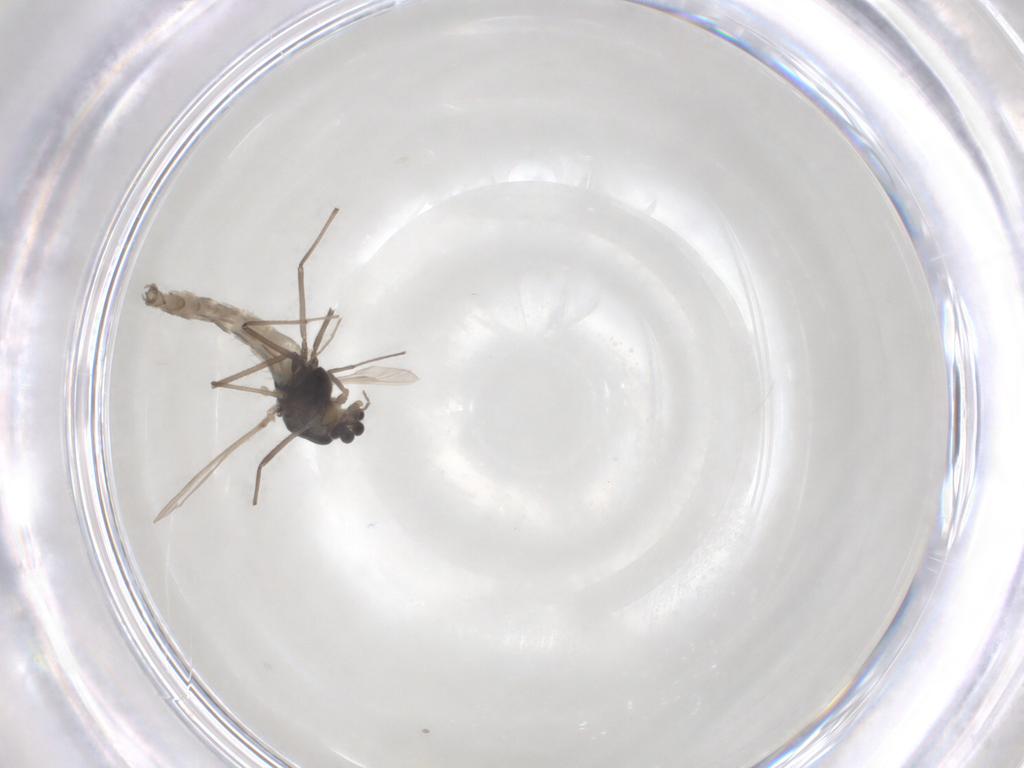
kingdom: Animalia
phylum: Arthropoda
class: Insecta
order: Diptera
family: Chironomidae
